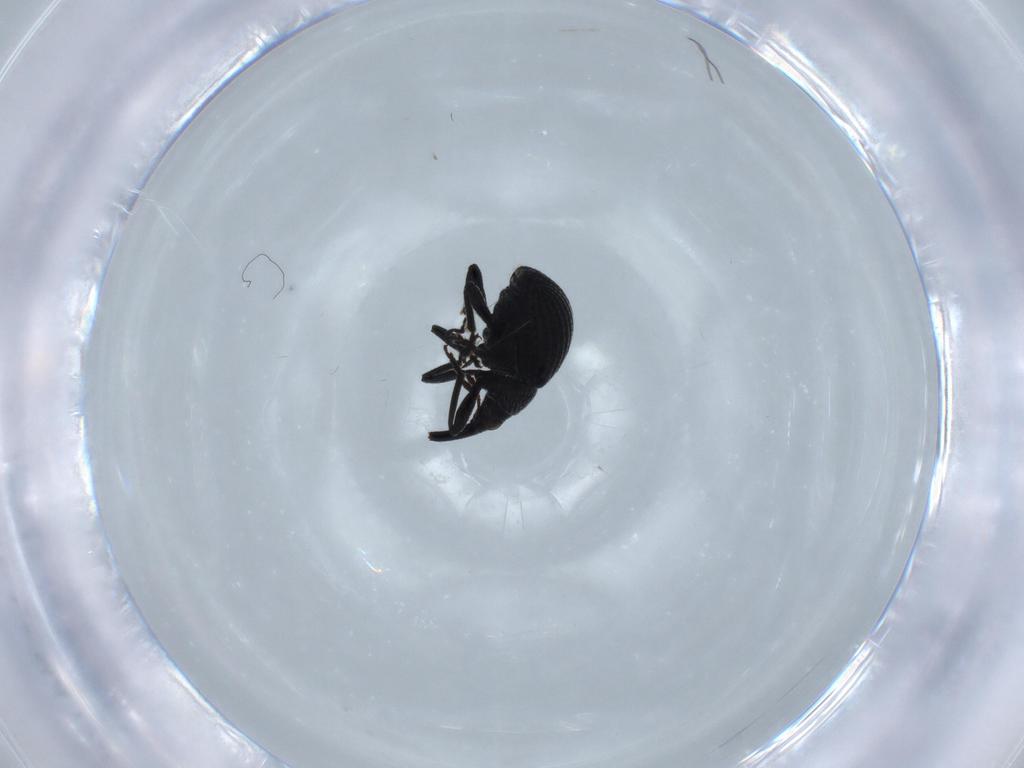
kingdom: Animalia
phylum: Arthropoda
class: Insecta
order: Coleoptera
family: Brentidae
